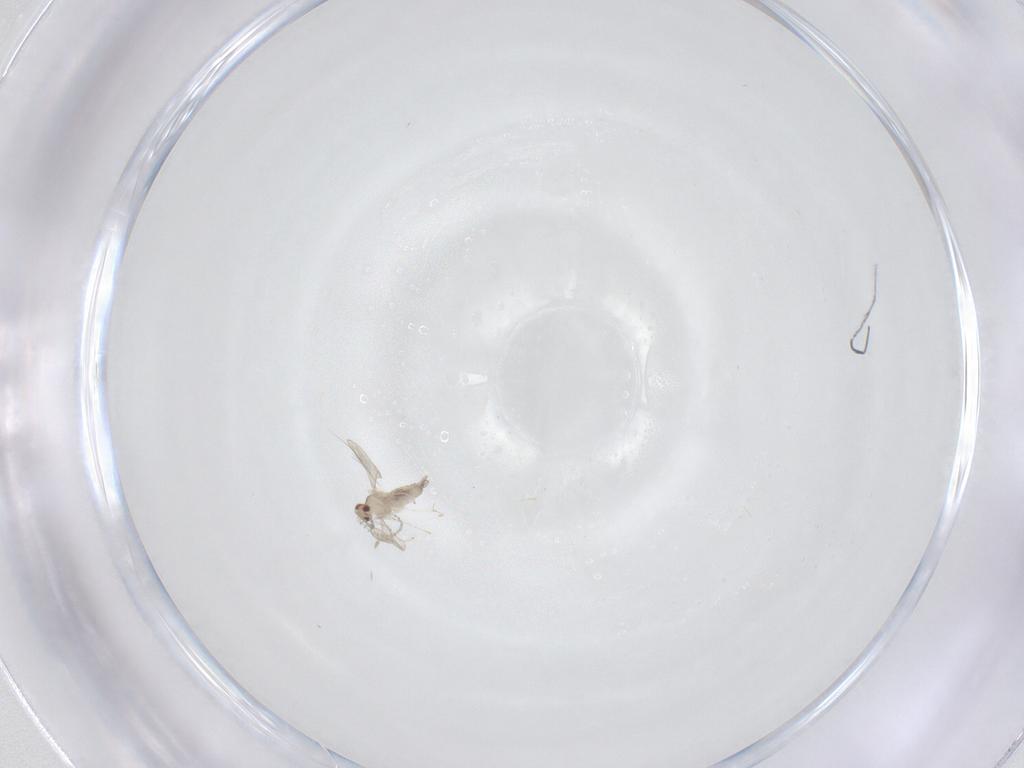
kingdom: Animalia
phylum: Arthropoda
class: Insecta
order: Diptera
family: Cecidomyiidae
